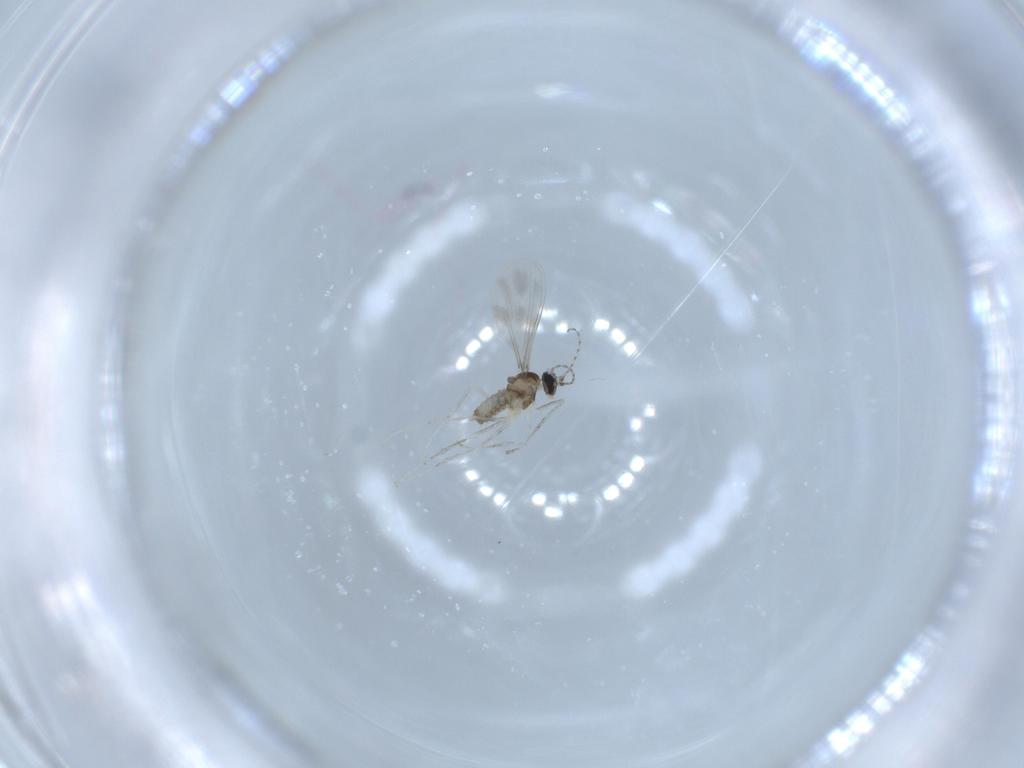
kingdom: Animalia
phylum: Arthropoda
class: Insecta
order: Diptera
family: Cecidomyiidae
